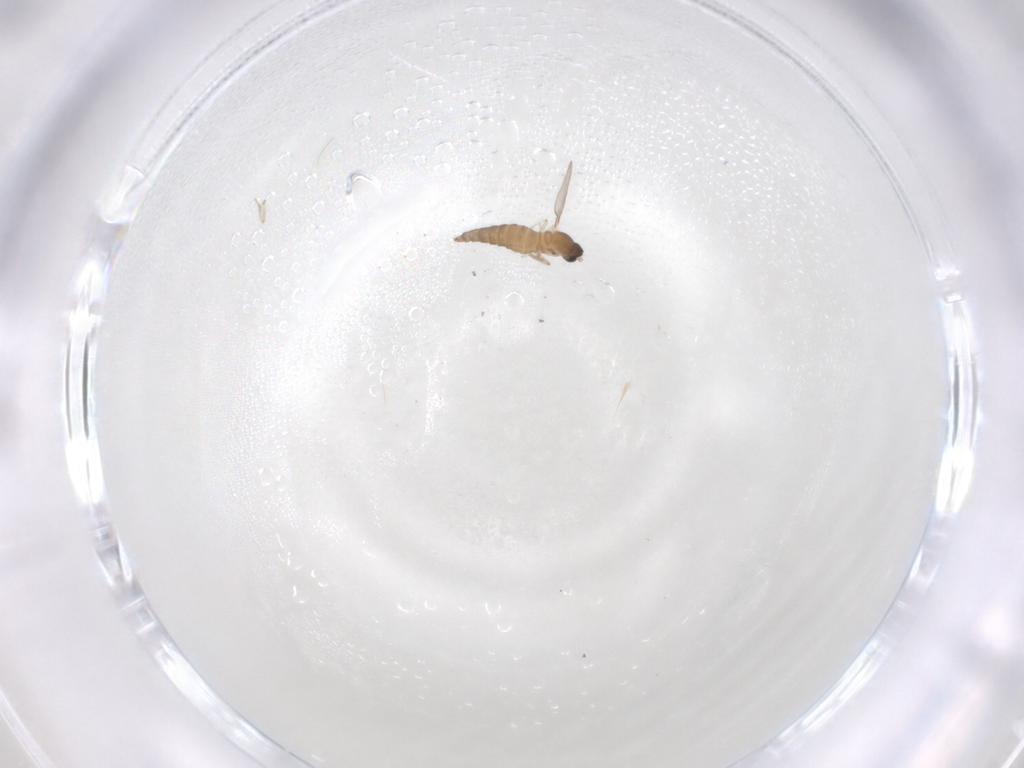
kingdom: Animalia
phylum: Arthropoda
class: Insecta
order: Diptera
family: Cecidomyiidae
